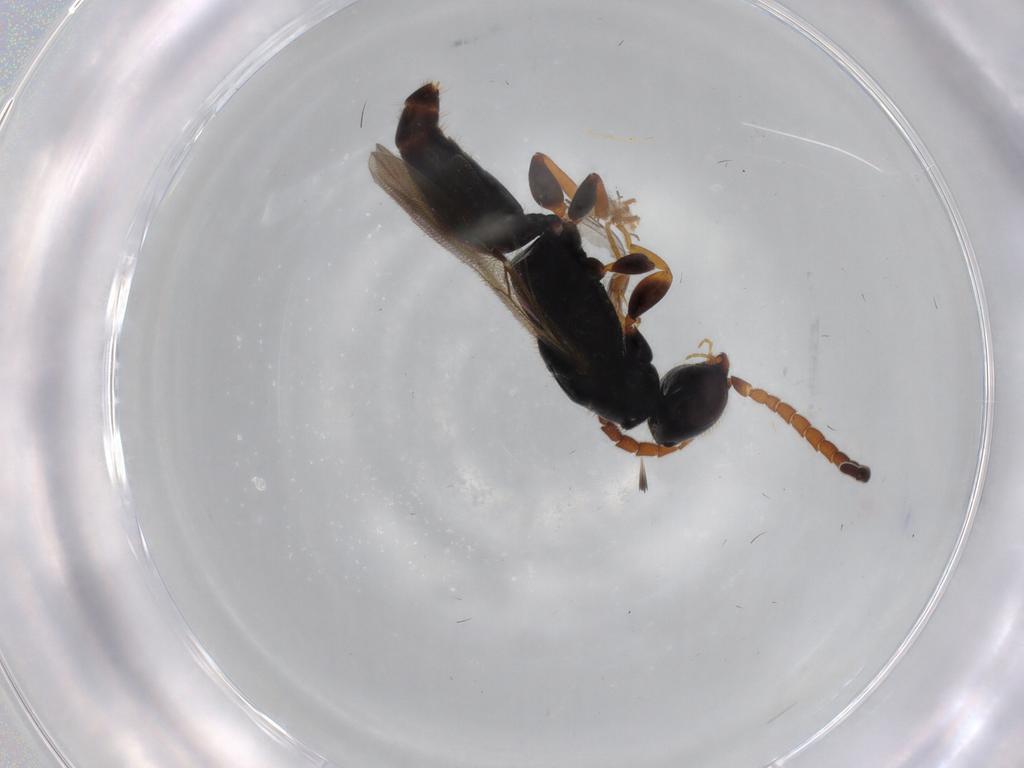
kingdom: Animalia
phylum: Arthropoda
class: Insecta
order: Hymenoptera
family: Bethylidae
